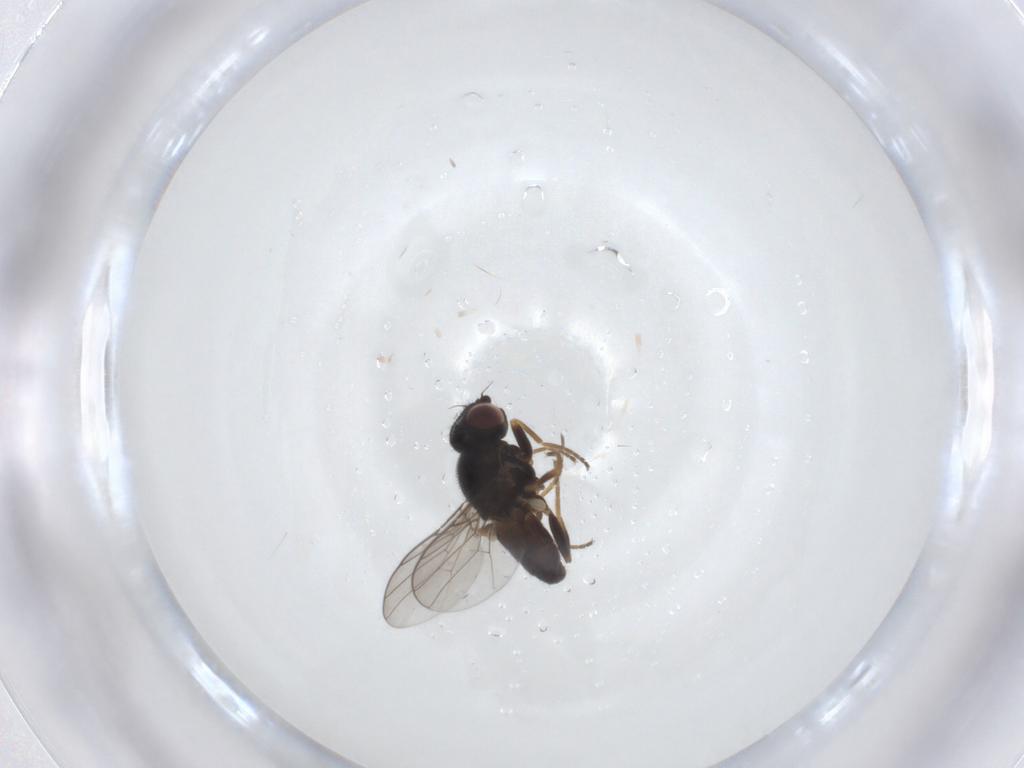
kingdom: Animalia
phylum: Arthropoda
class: Insecta
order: Diptera
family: Chloropidae
